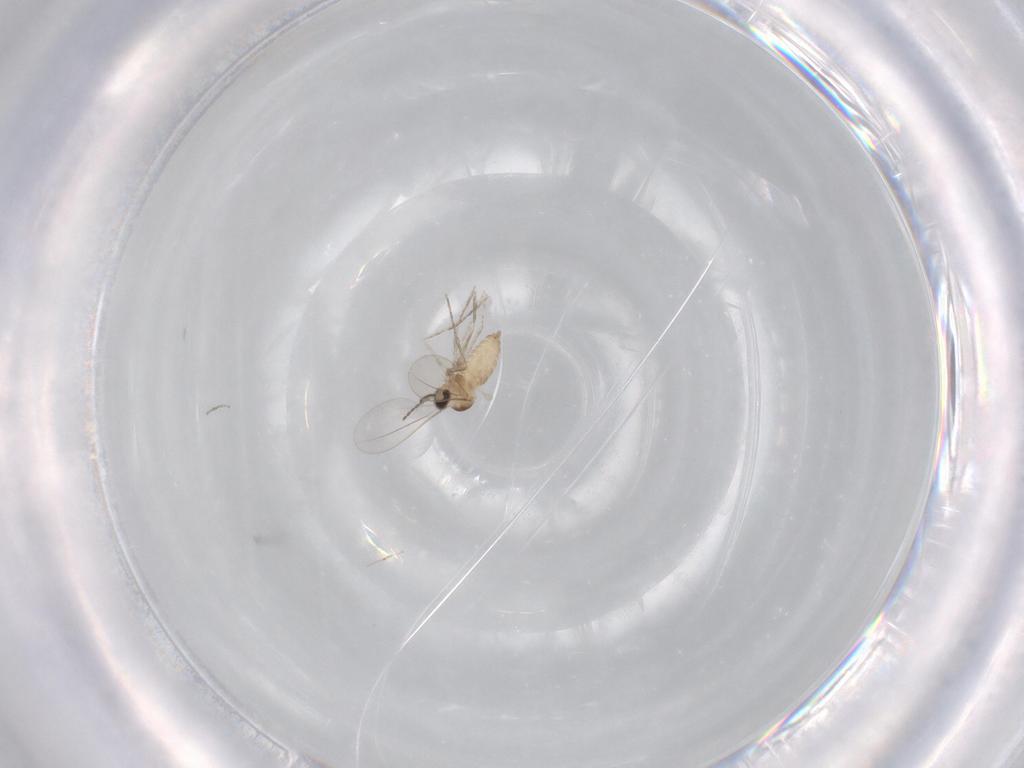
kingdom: Animalia
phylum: Arthropoda
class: Insecta
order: Diptera
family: Cecidomyiidae
